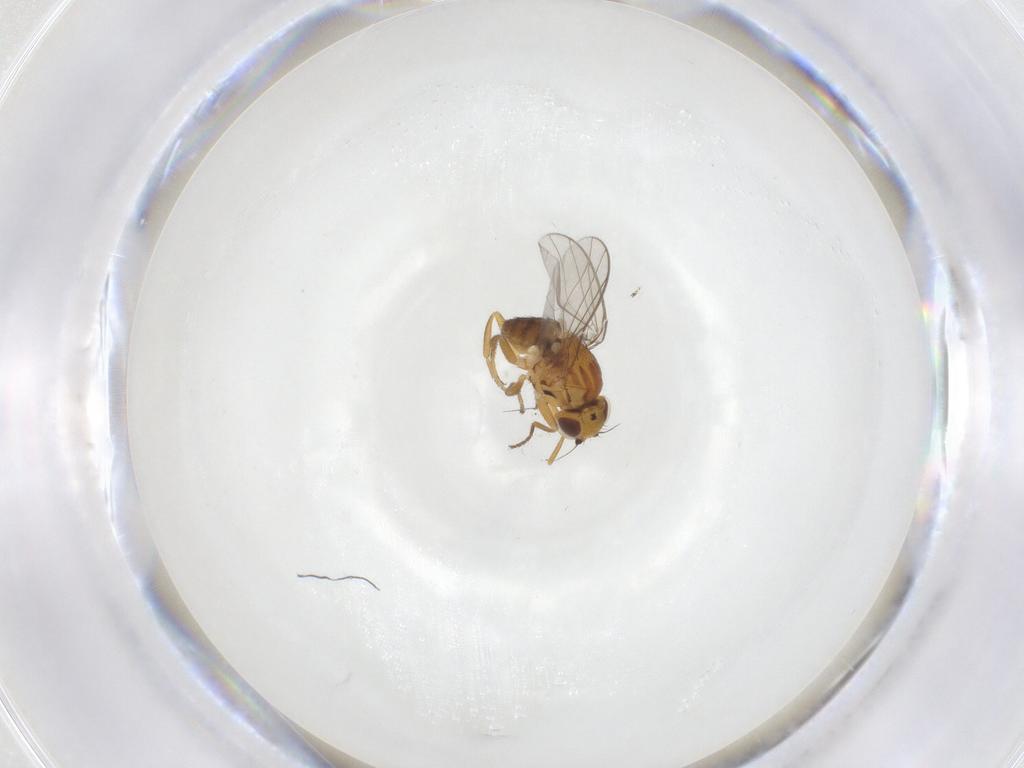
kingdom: Animalia
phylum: Arthropoda
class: Insecta
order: Diptera
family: Chloropidae
